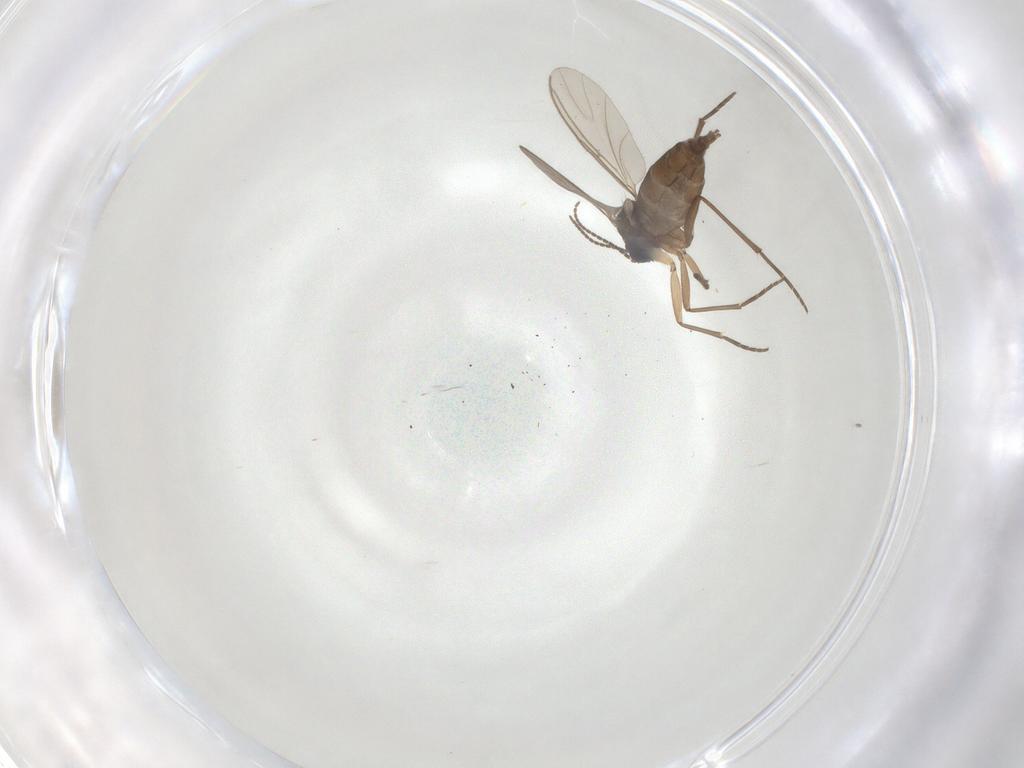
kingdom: Animalia
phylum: Arthropoda
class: Insecta
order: Diptera
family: Sciaridae
